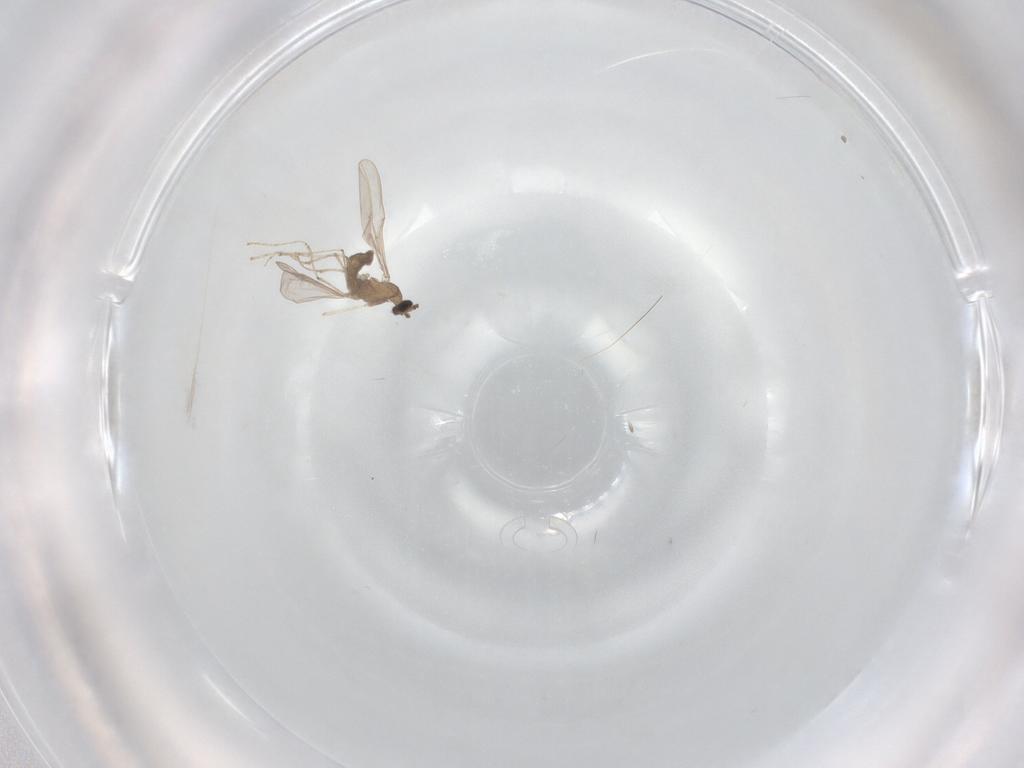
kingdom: Animalia
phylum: Arthropoda
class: Insecta
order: Diptera
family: Cecidomyiidae
